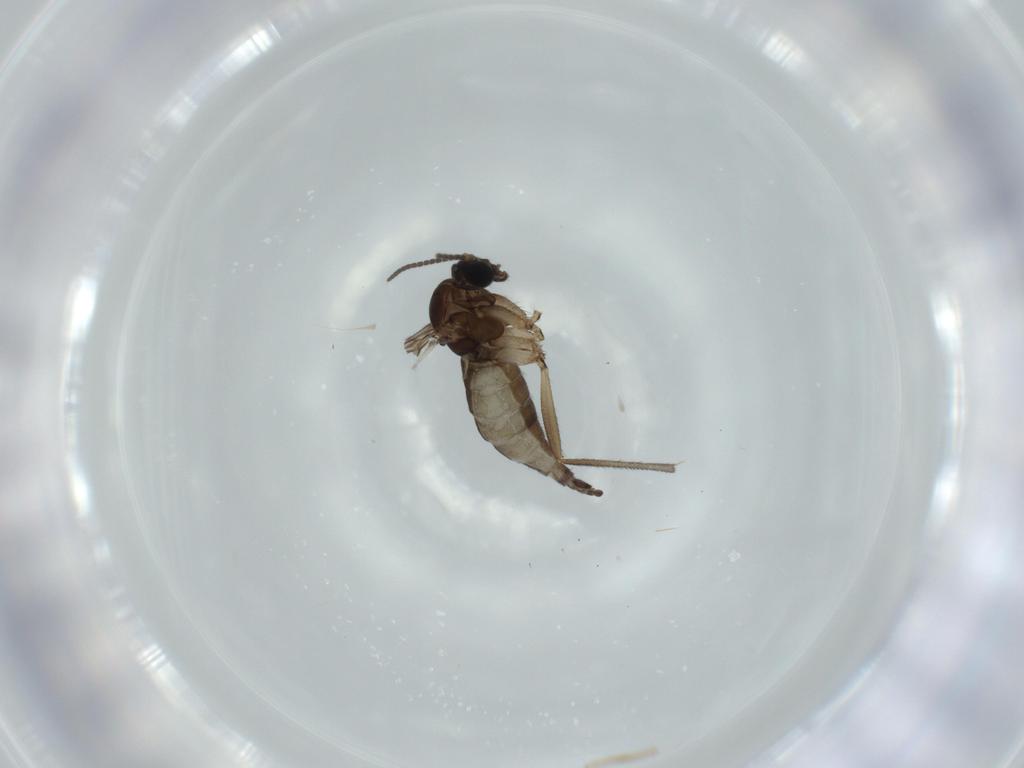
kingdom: Animalia
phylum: Arthropoda
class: Insecta
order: Diptera
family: Sciaridae
